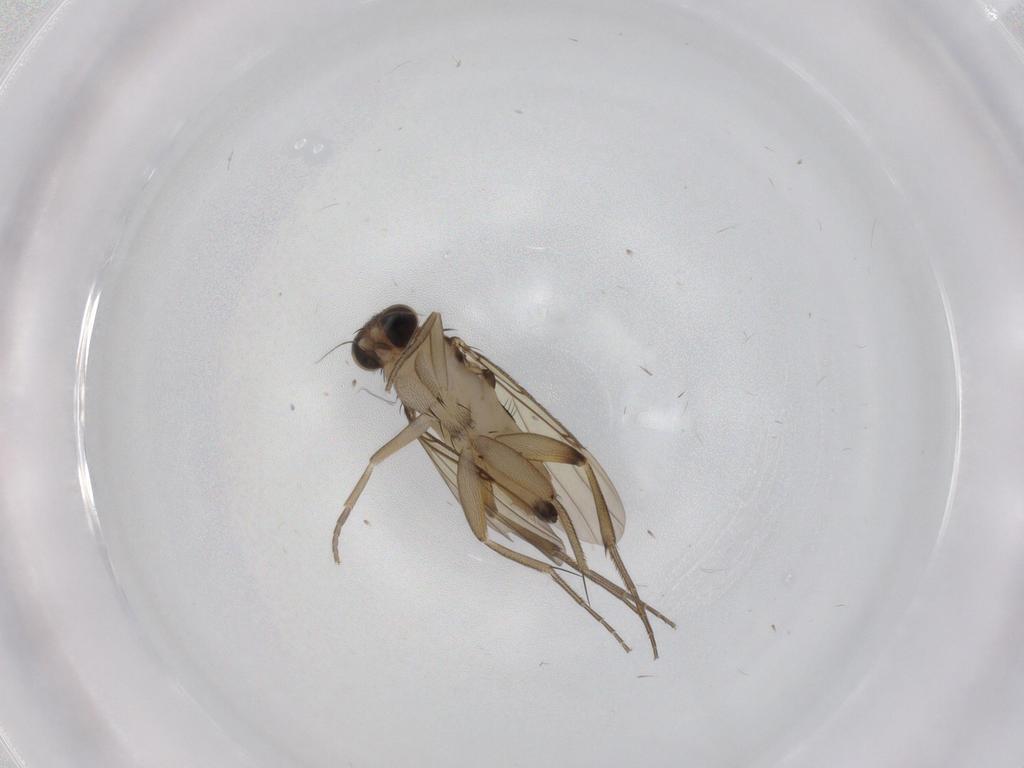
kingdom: Animalia
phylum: Arthropoda
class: Insecta
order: Diptera
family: Phoridae
